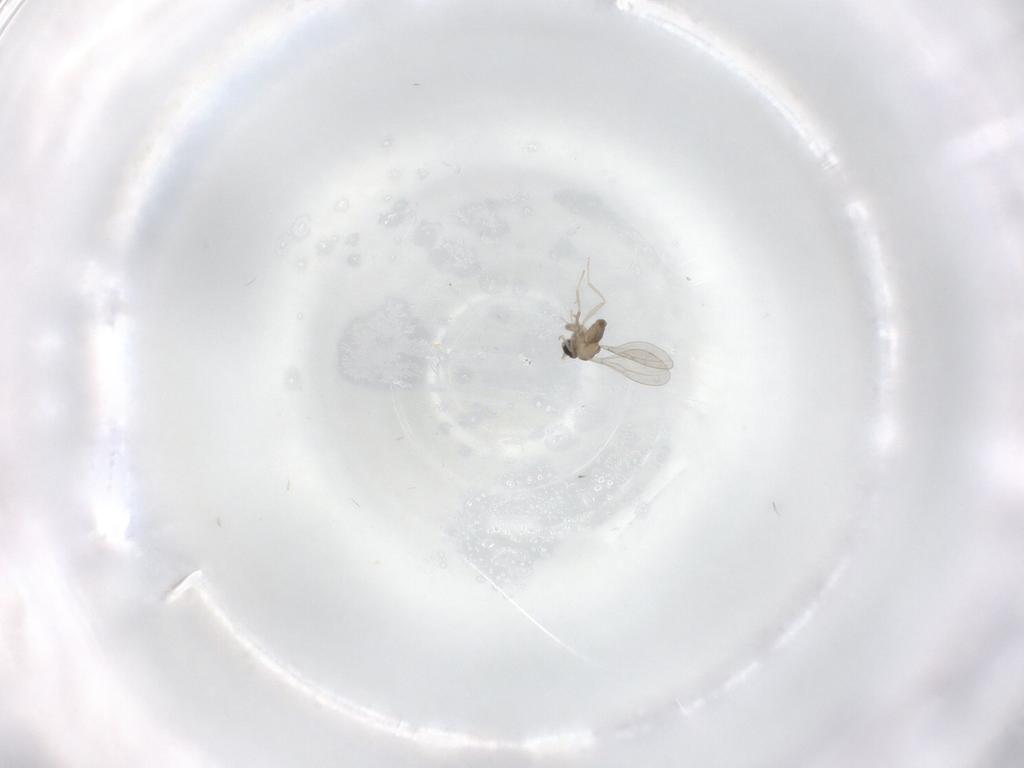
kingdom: Animalia
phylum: Arthropoda
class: Insecta
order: Diptera
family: Cecidomyiidae
